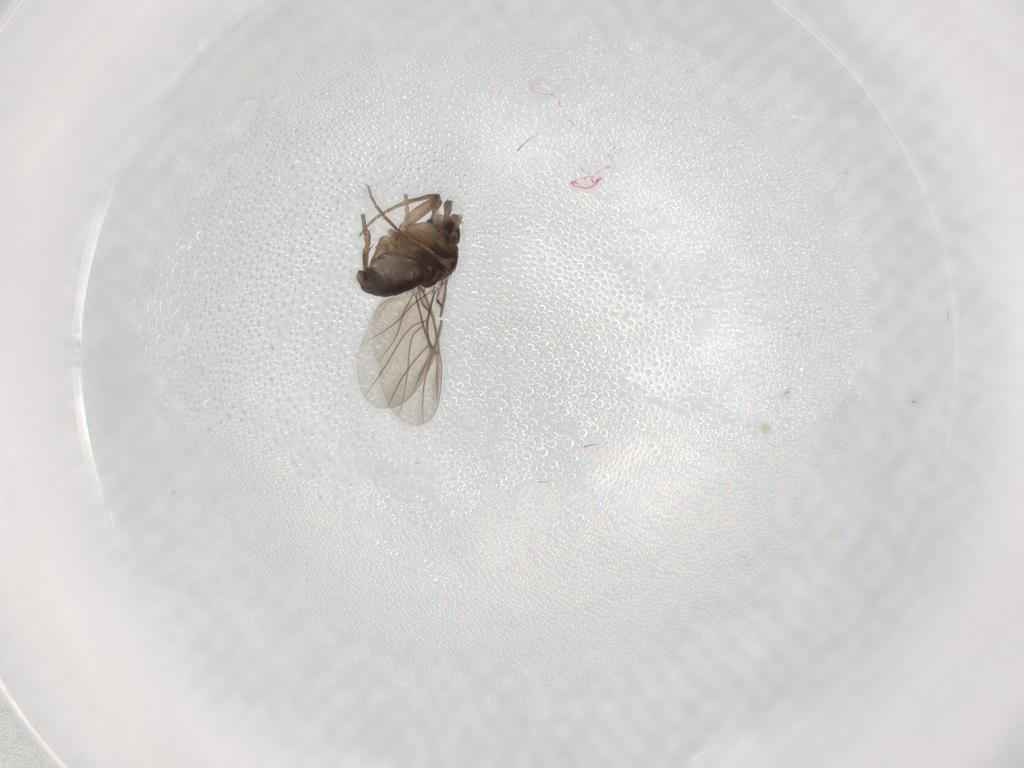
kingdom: Animalia
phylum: Arthropoda
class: Insecta
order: Diptera
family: Phoridae
